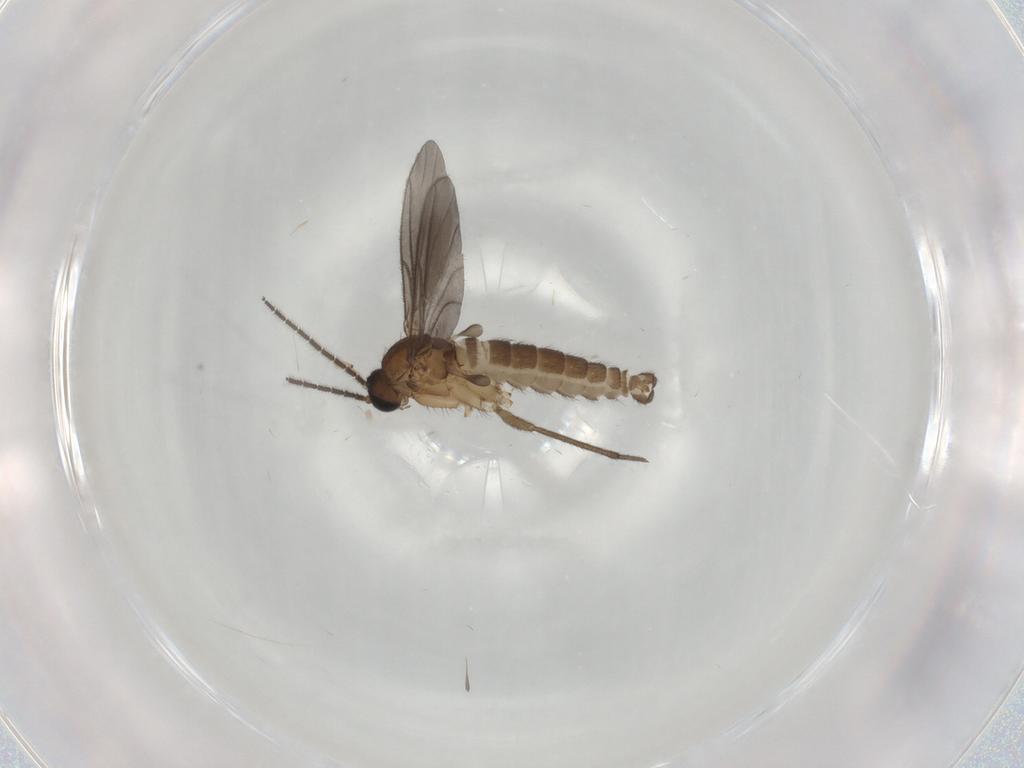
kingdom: Animalia
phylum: Arthropoda
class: Insecta
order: Diptera
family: Sciaridae
